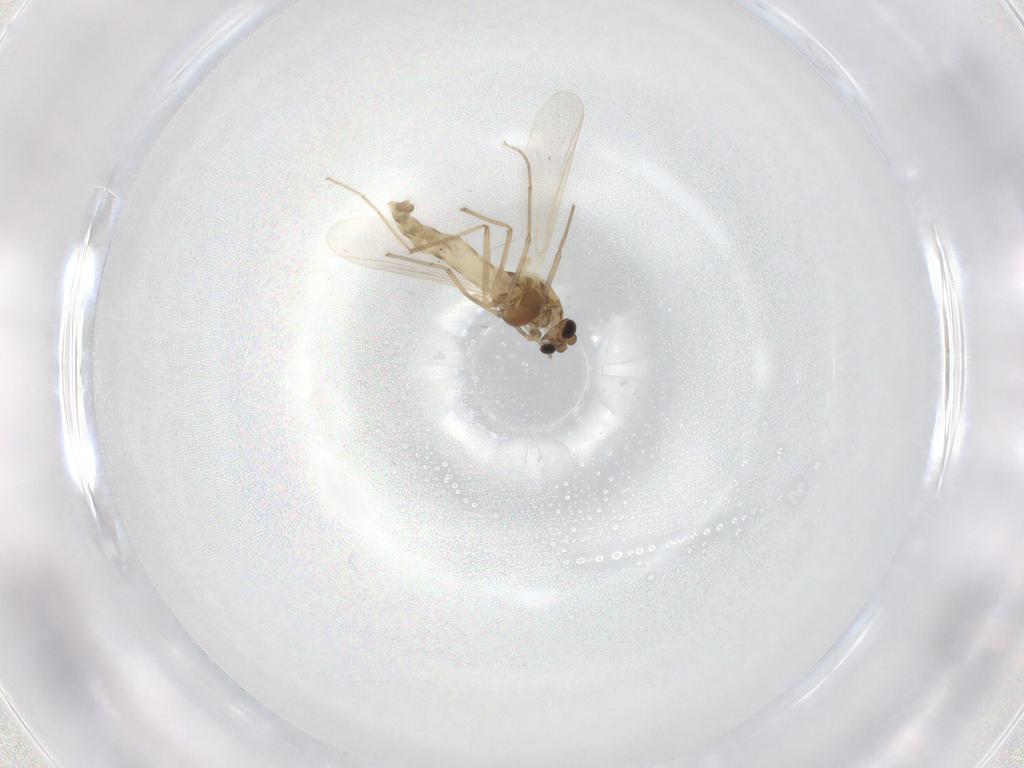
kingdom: Animalia
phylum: Arthropoda
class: Insecta
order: Diptera
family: Chironomidae
